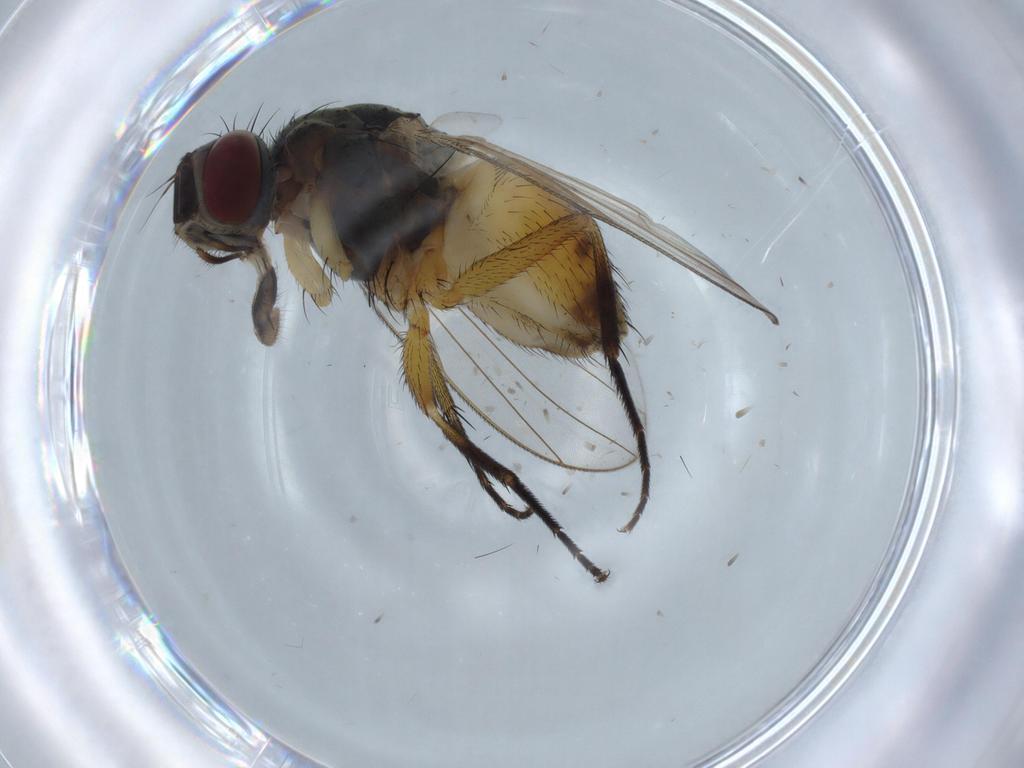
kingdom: Animalia
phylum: Arthropoda
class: Insecta
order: Diptera
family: Muscidae
